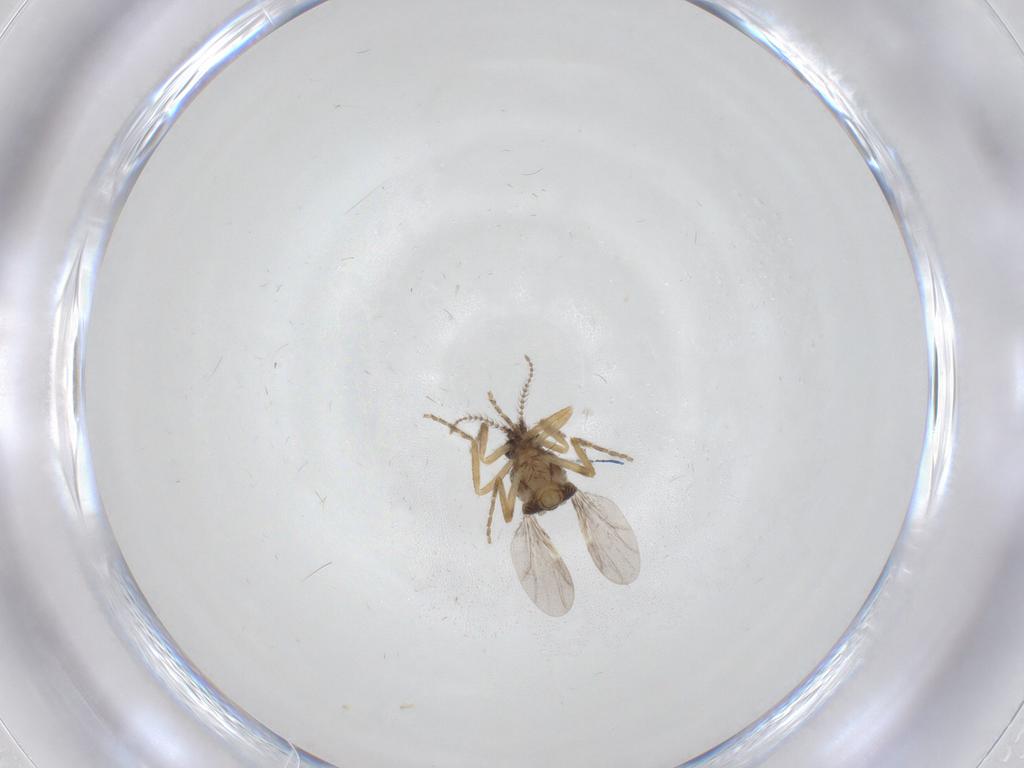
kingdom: Animalia
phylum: Arthropoda
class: Insecta
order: Diptera
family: Ceratopogonidae
